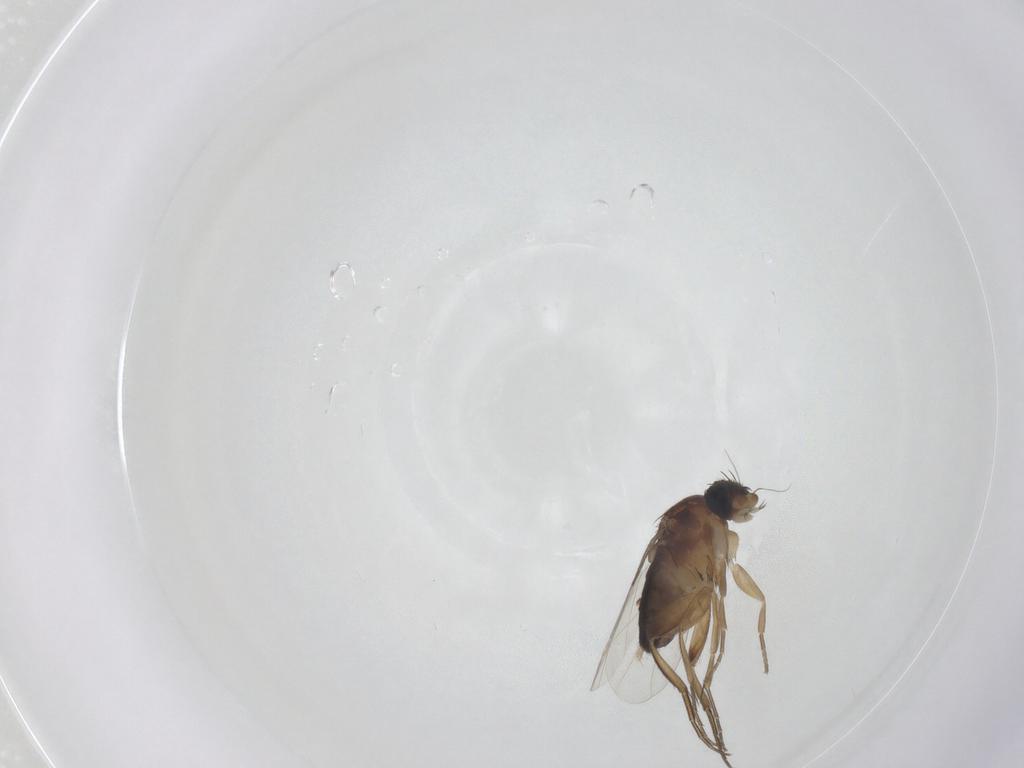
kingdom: Animalia
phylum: Arthropoda
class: Insecta
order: Diptera
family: Phoridae
